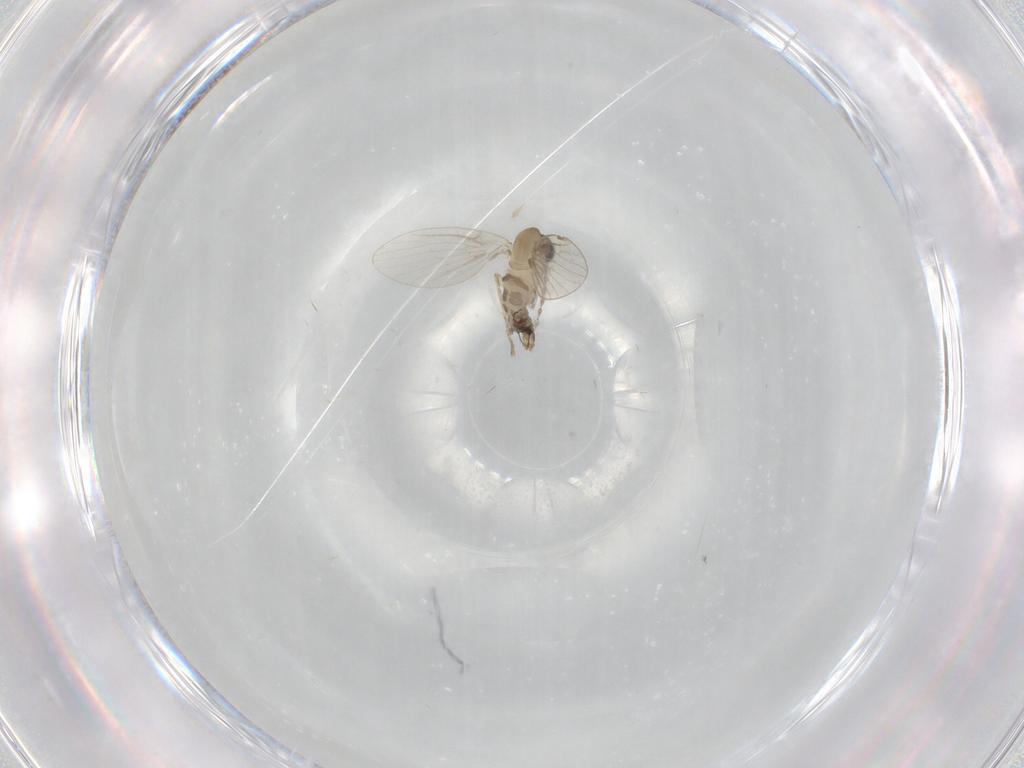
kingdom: Animalia
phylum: Arthropoda
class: Insecta
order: Diptera
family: Psychodidae
